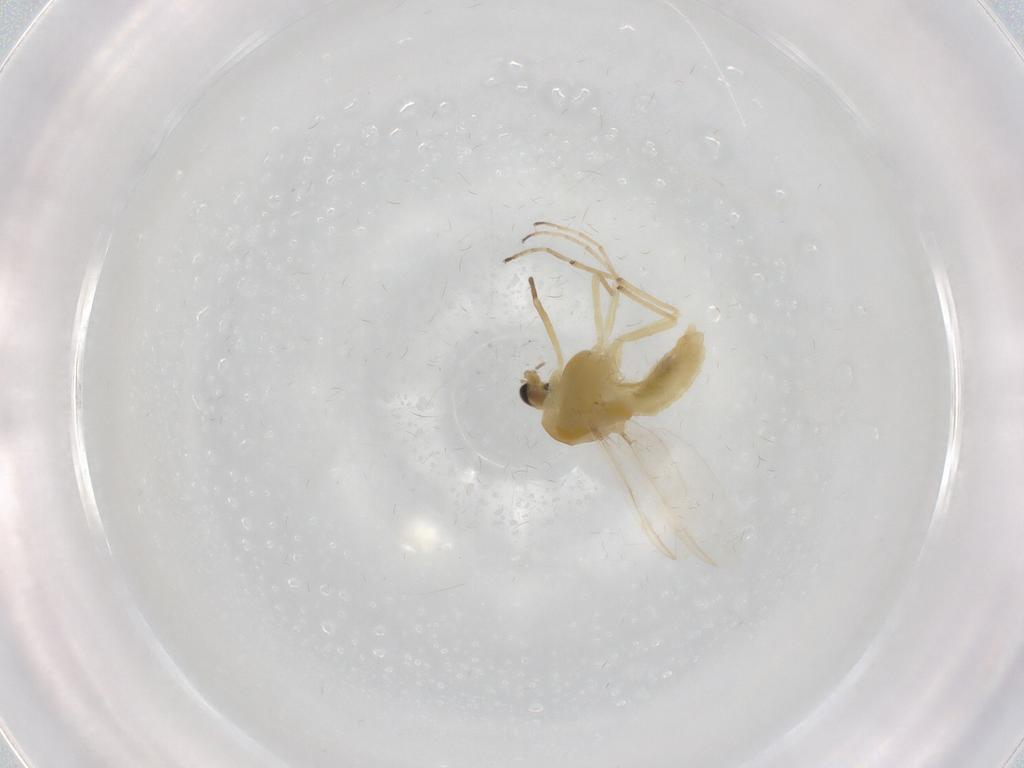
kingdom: Animalia
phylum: Arthropoda
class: Insecta
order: Diptera
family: Chironomidae
